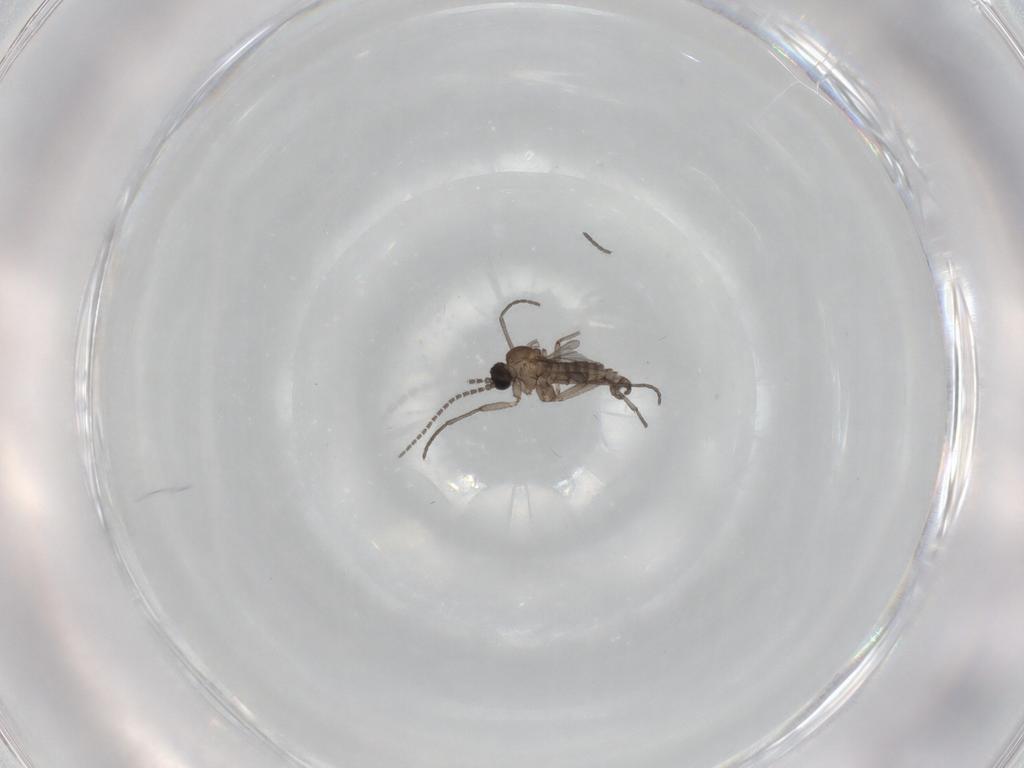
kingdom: Animalia
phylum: Arthropoda
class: Insecta
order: Diptera
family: Sciaridae
